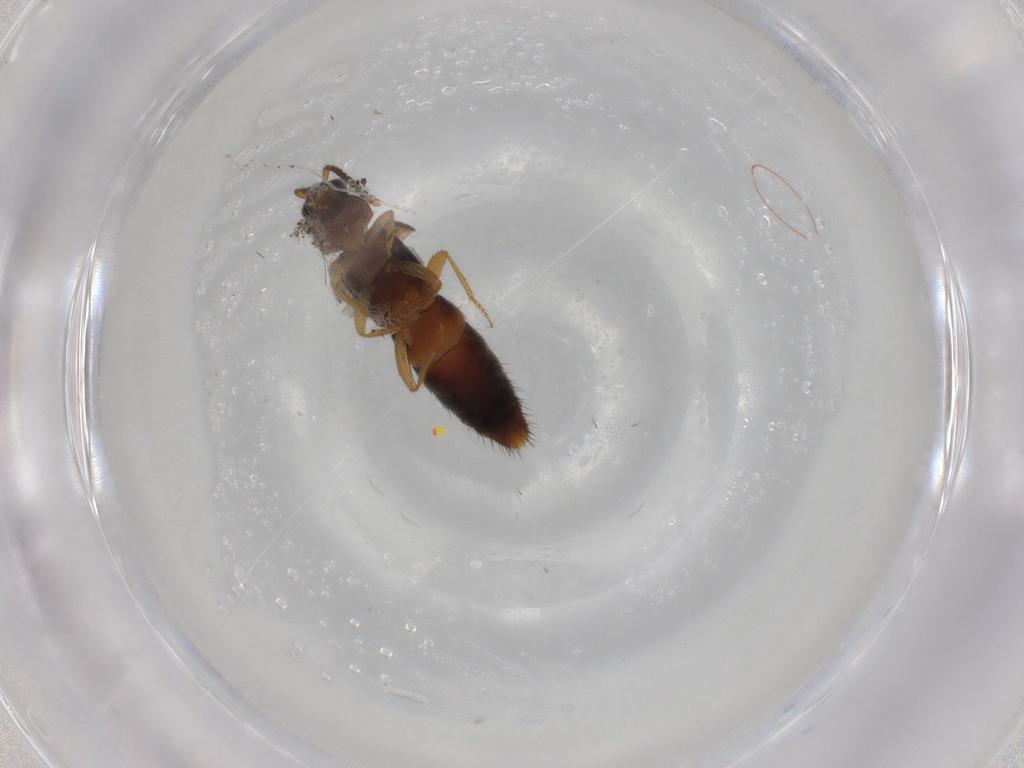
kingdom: Animalia
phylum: Arthropoda
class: Insecta
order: Coleoptera
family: Staphylinidae
